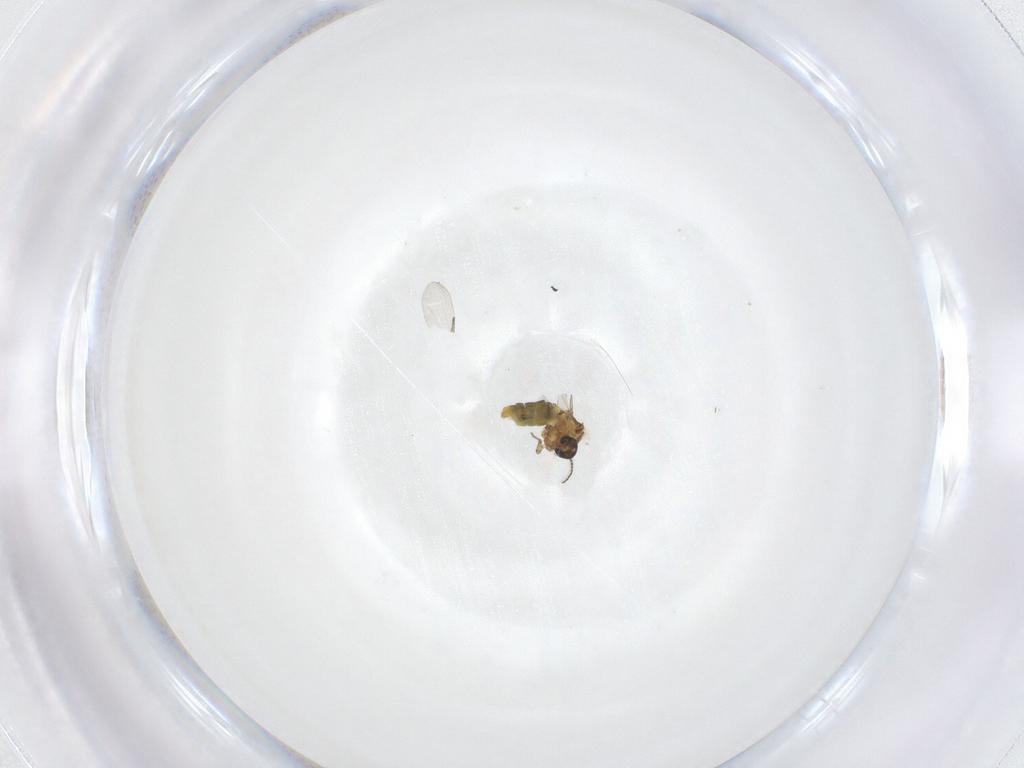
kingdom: Animalia
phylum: Arthropoda
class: Insecta
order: Diptera
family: Ceratopogonidae
